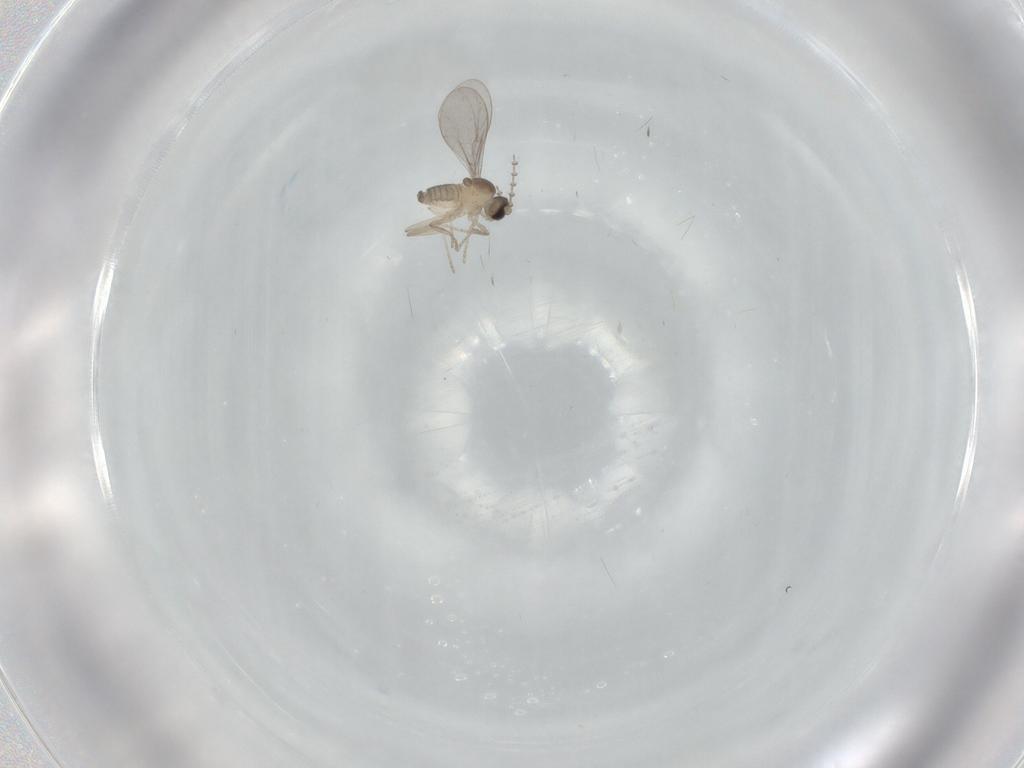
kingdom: Animalia
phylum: Arthropoda
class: Insecta
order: Diptera
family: Cecidomyiidae
